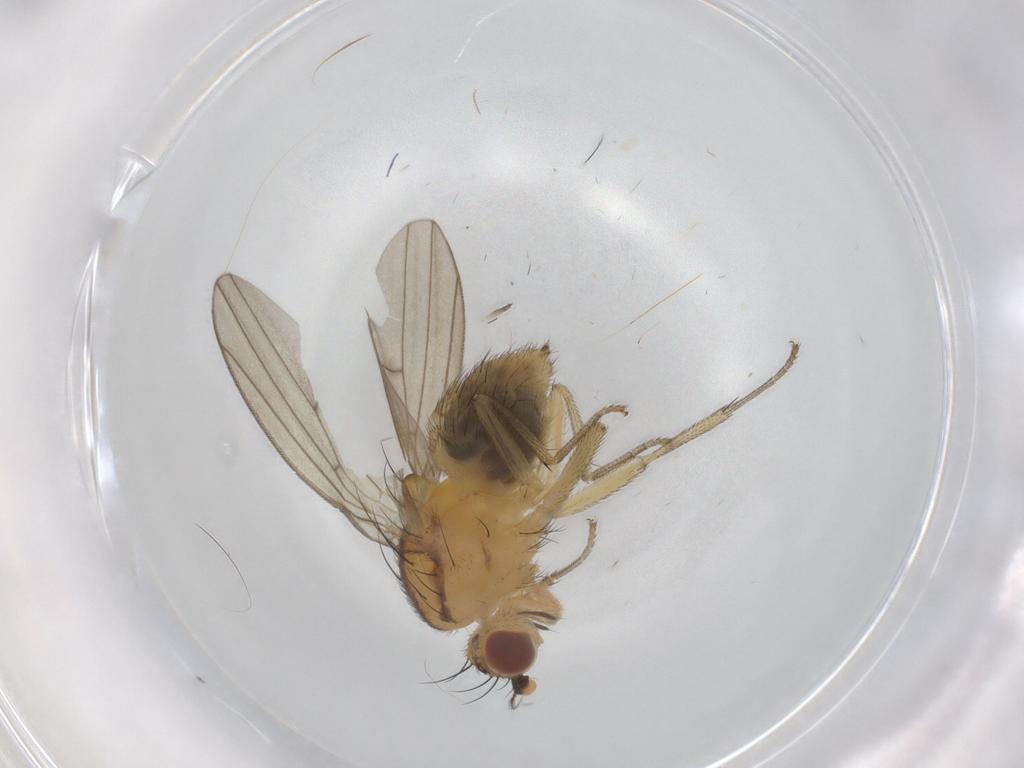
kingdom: Animalia
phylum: Arthropoda
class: Insecta
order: Diptera
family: Chironomidae
